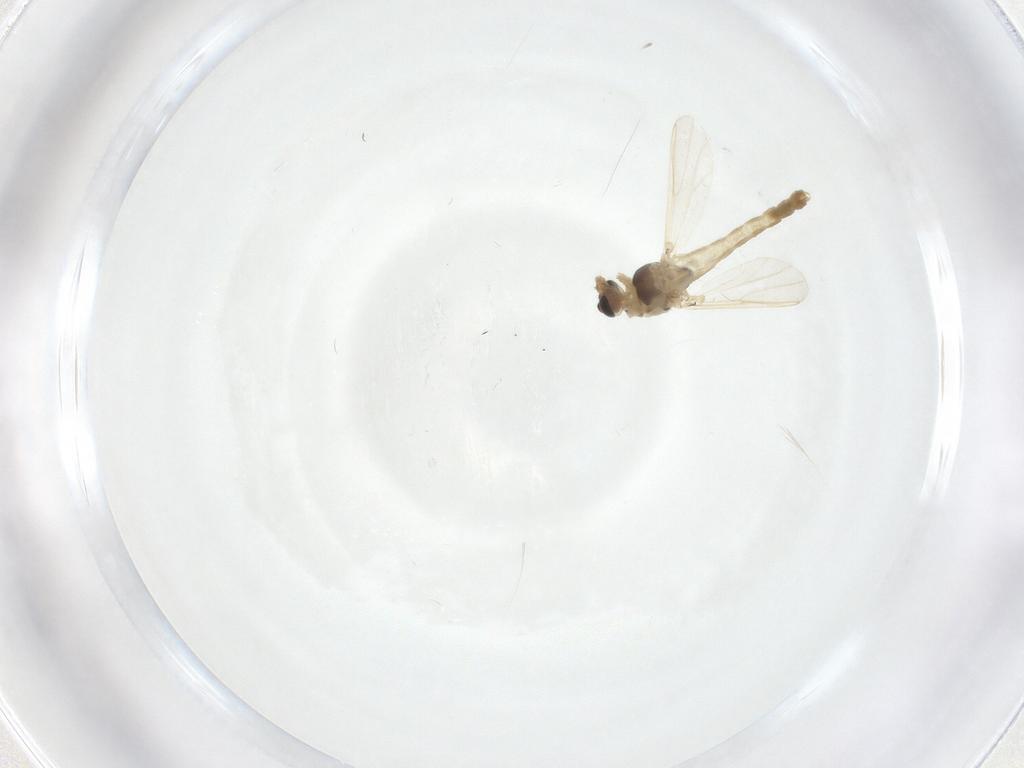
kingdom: Animalia
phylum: Arthropoda
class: Insecta
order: Diptera
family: Chironomidae
